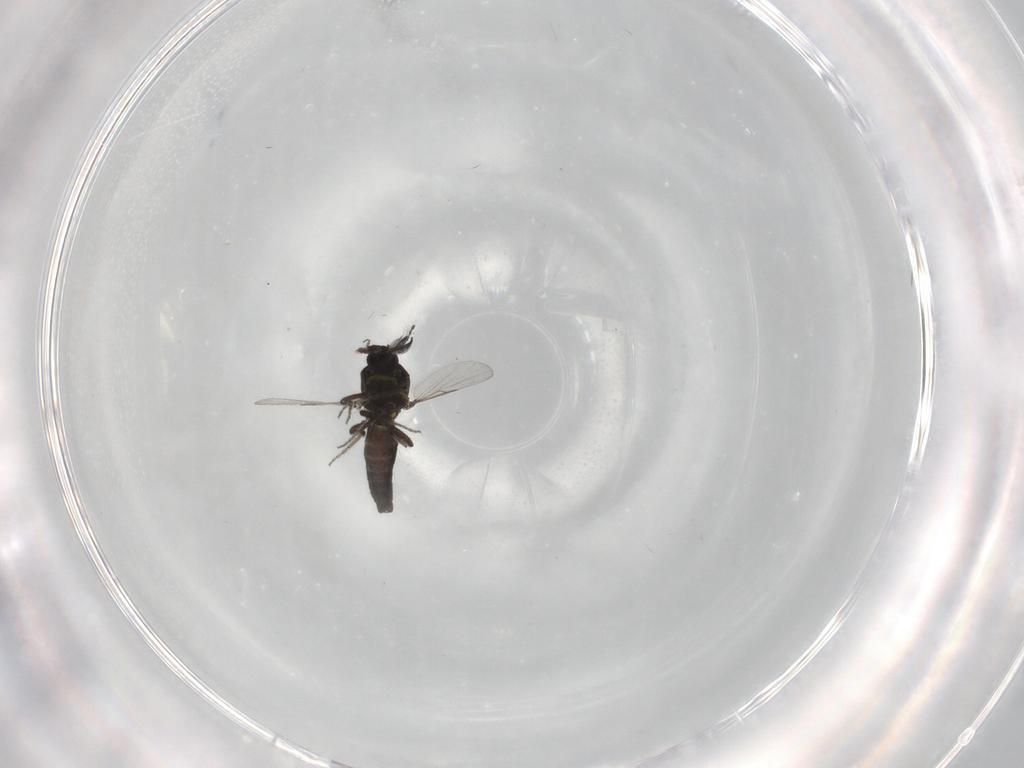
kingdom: Animalia
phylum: Arthropoda
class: Insecta
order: Diptera
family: Ceratopogonidae
